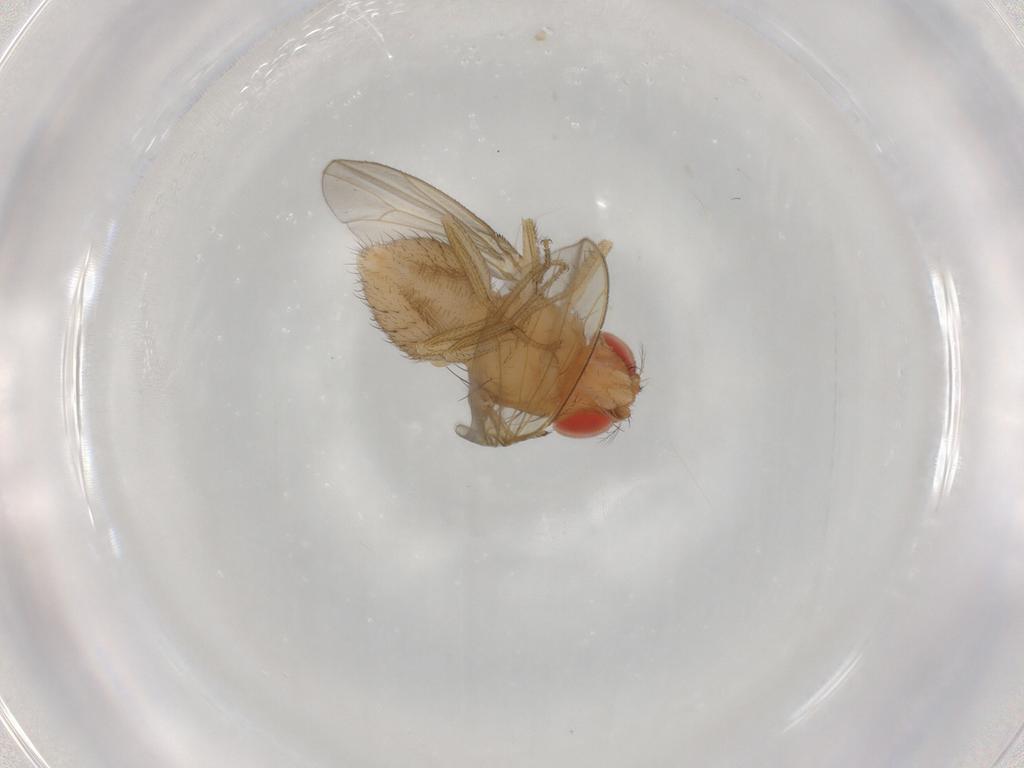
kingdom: Animalia
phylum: Arthropoda
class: Insecta
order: Diptera
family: Drosophilidae
